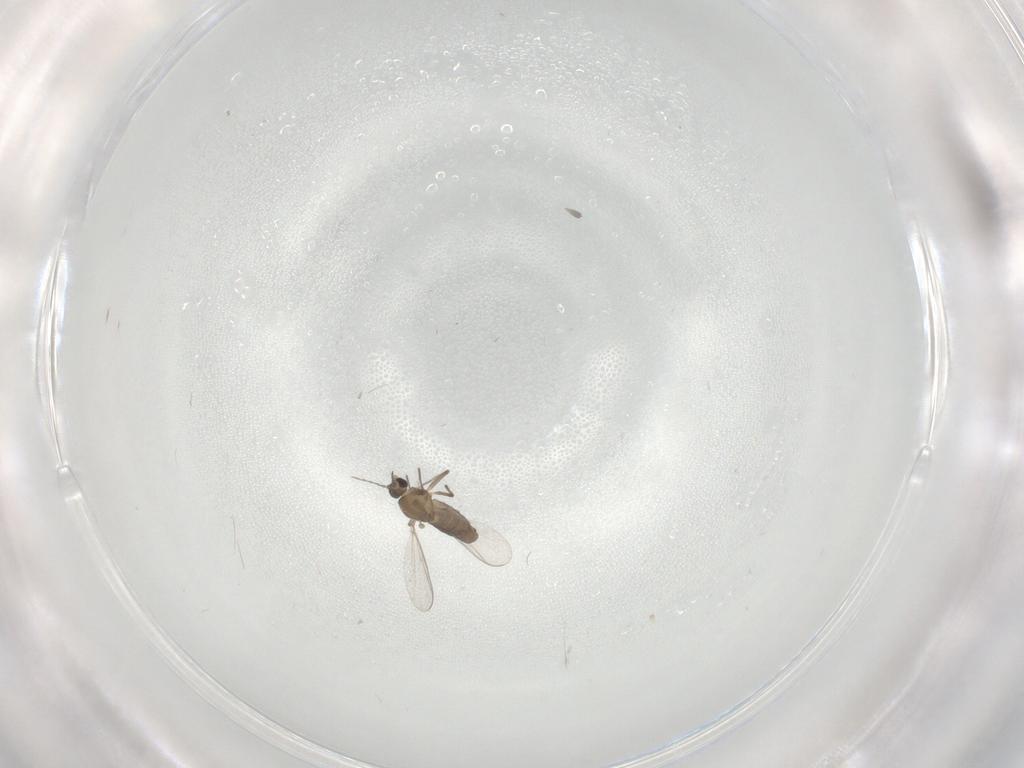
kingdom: Animalia
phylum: Arthropoda
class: Insecta
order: Diptera
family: Chironomidae
